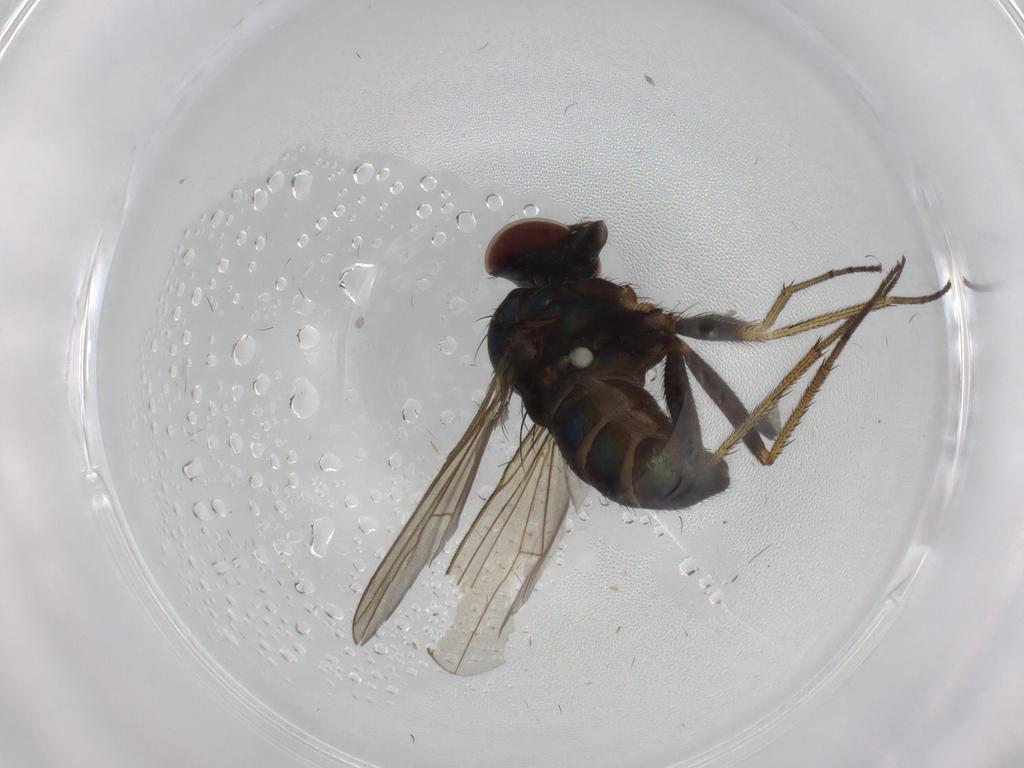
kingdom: Animalia
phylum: Arthropoda
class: Insecta
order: Diptera
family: Dolichopodidae
